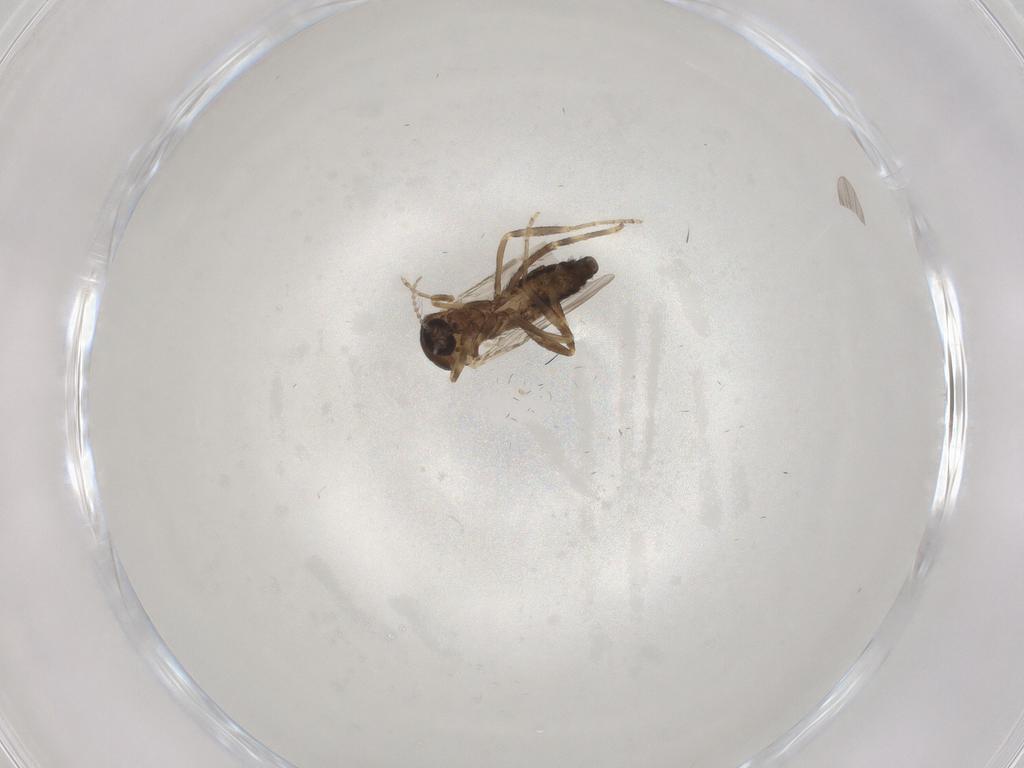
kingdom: Animalia
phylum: Arthropoda
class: Insecta
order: Diptera
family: Ceratopogonidae
